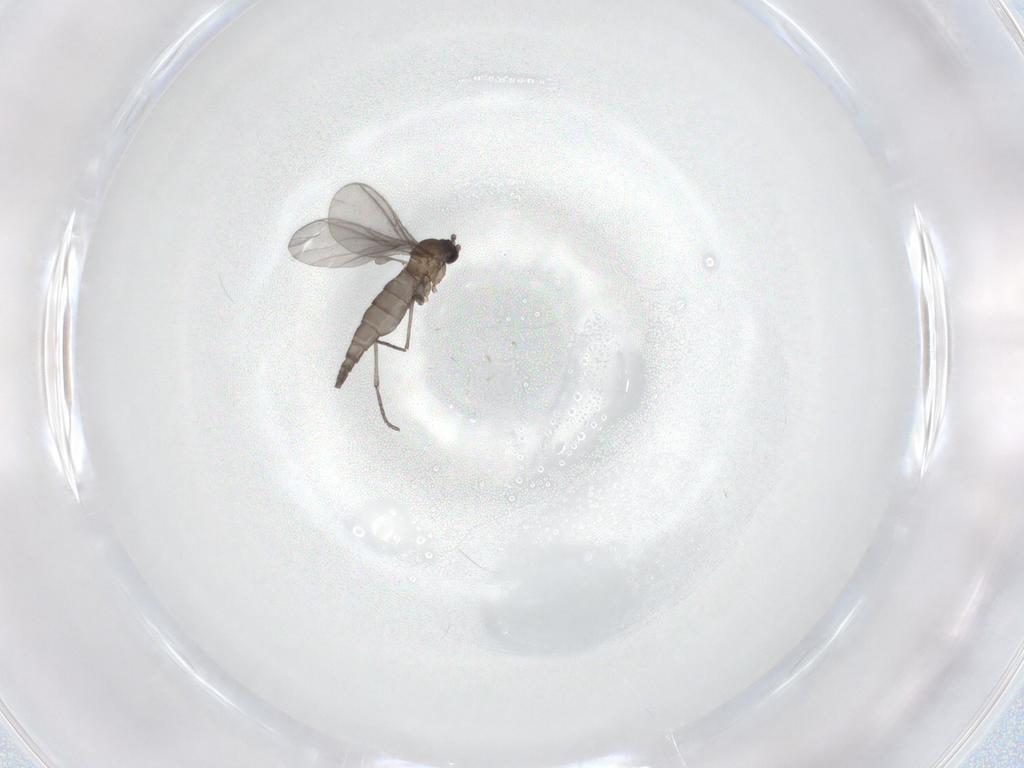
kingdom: Animalia
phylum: Arthropoda
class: Insecta
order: Diptera
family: Sciaridae
